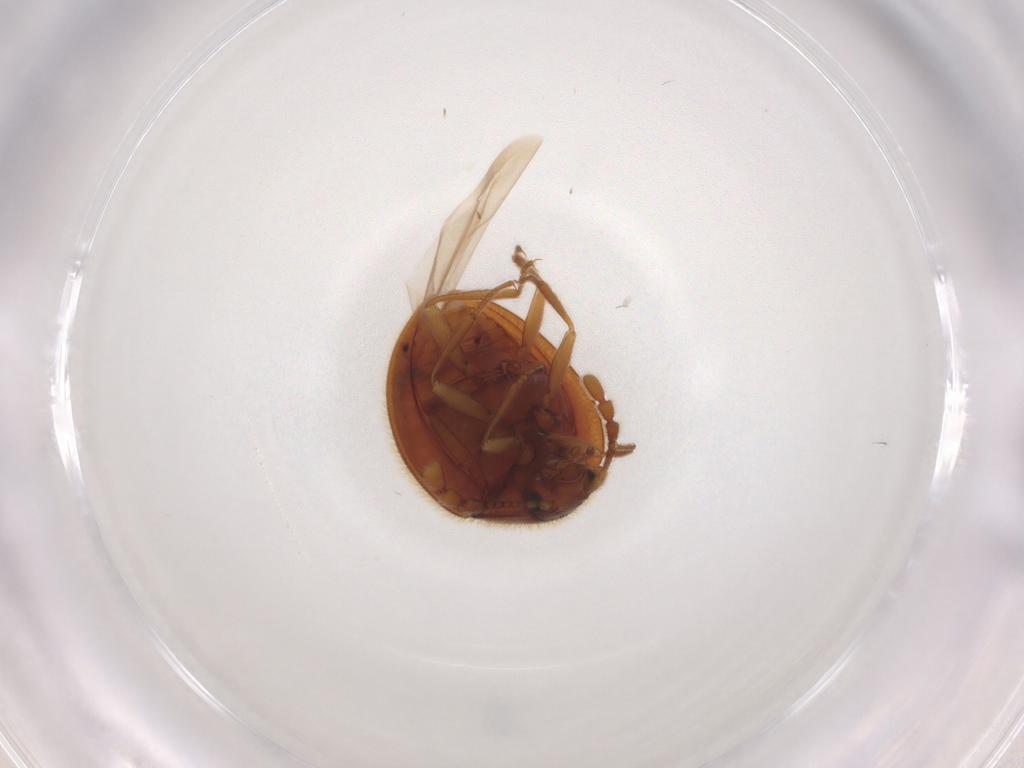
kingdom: Animalia
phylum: Arthropoda
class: Insecta
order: Coleoptera
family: Anamorphidae
